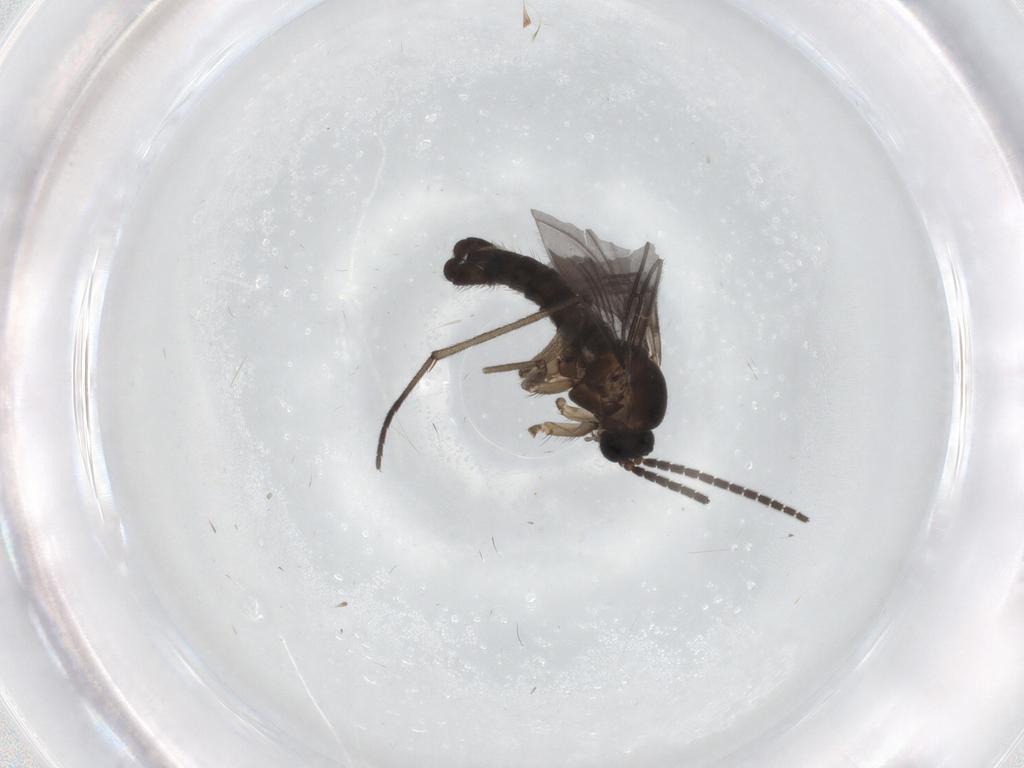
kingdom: Animalia
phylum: Arthropoda
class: Insecta
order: Diptera
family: Sciaridae
